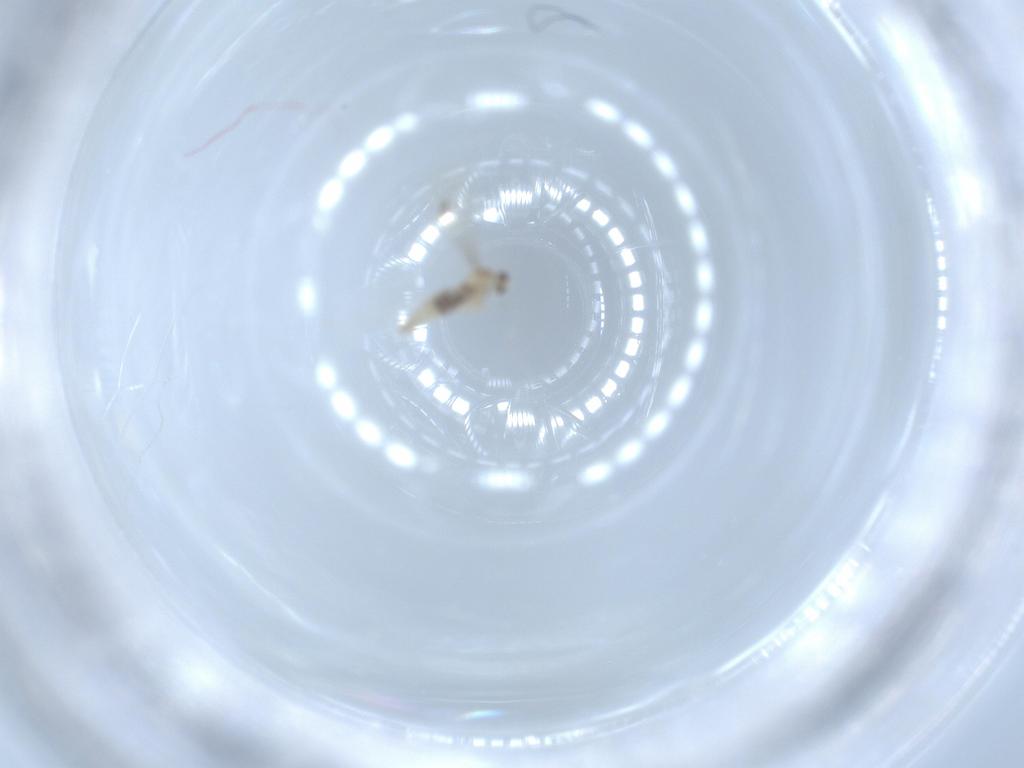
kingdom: Animalia
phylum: Arthropoda
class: Insecta
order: Diptera
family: Cecidomyiidae
